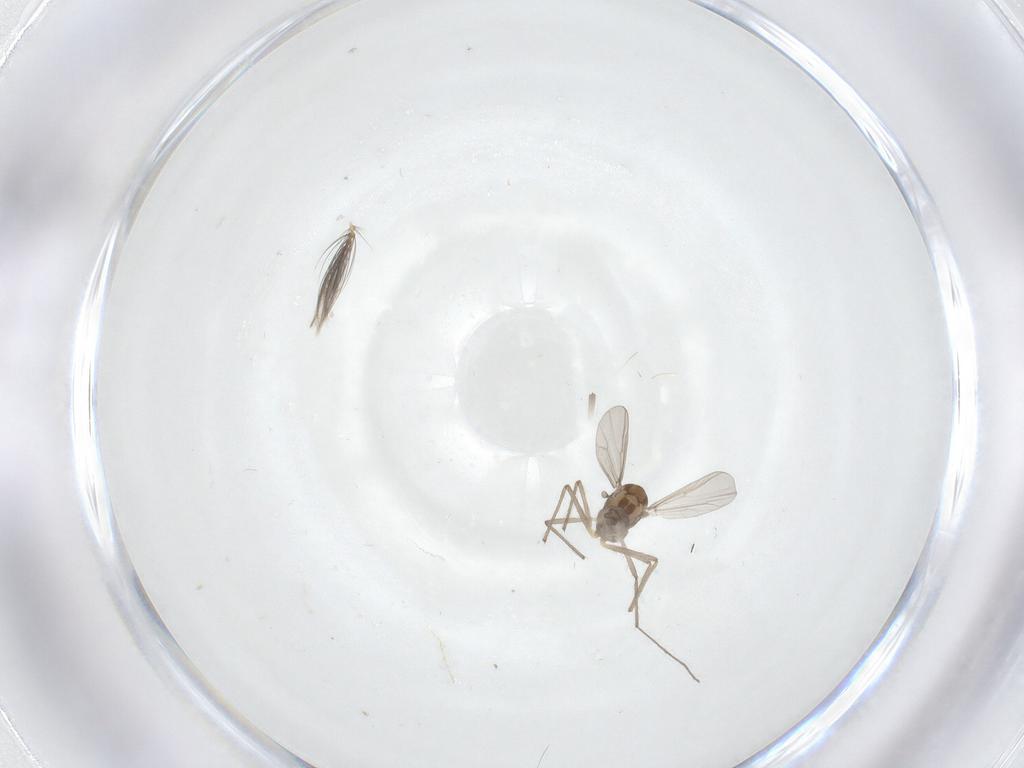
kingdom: Animalia
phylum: Arthropoda
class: Insecta
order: Diptera
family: Ceratopogonidae
